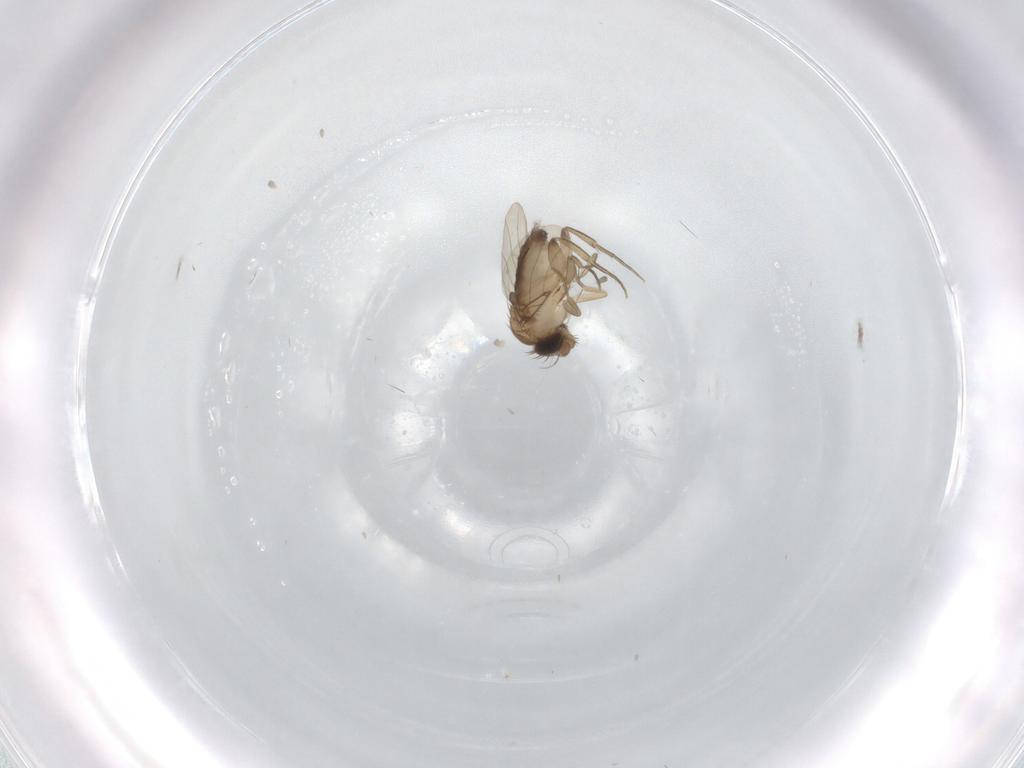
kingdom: Animalia
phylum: Arthropoda
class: Insecta
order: Diptera
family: Phoridae
